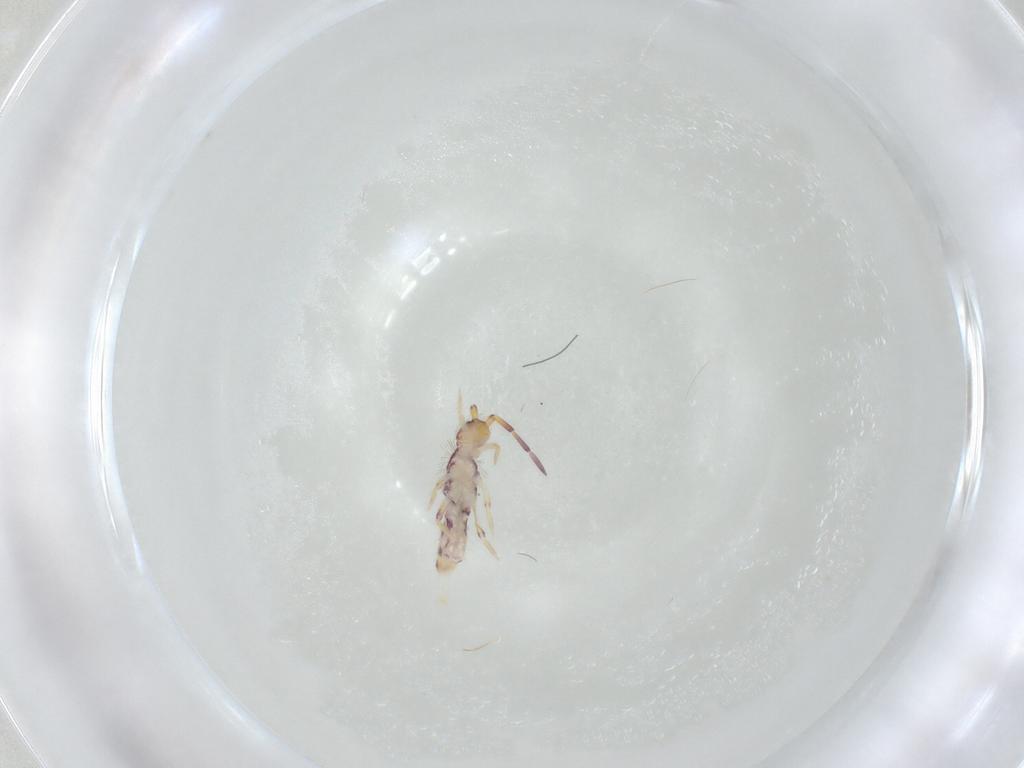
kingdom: Animalia
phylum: Arthropoda
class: Collembola
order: Entomobryomorpha
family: Entomobryidae
